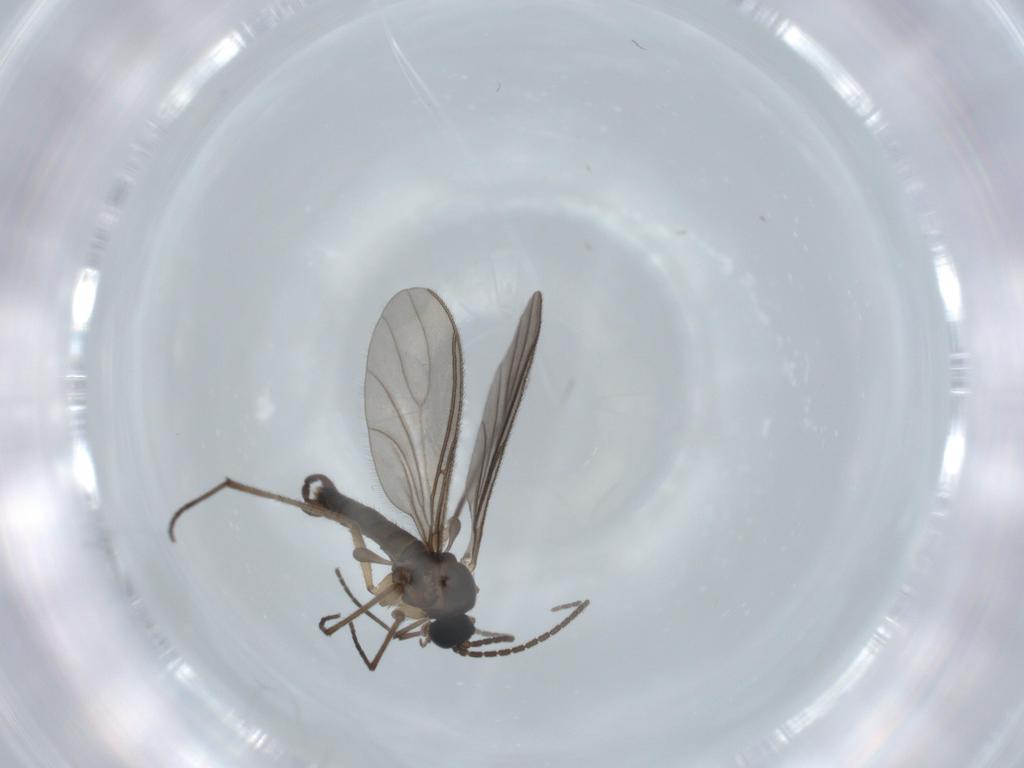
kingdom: Animalia
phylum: Arthropoda
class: Insecta
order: Diptera
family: Sciaridae
